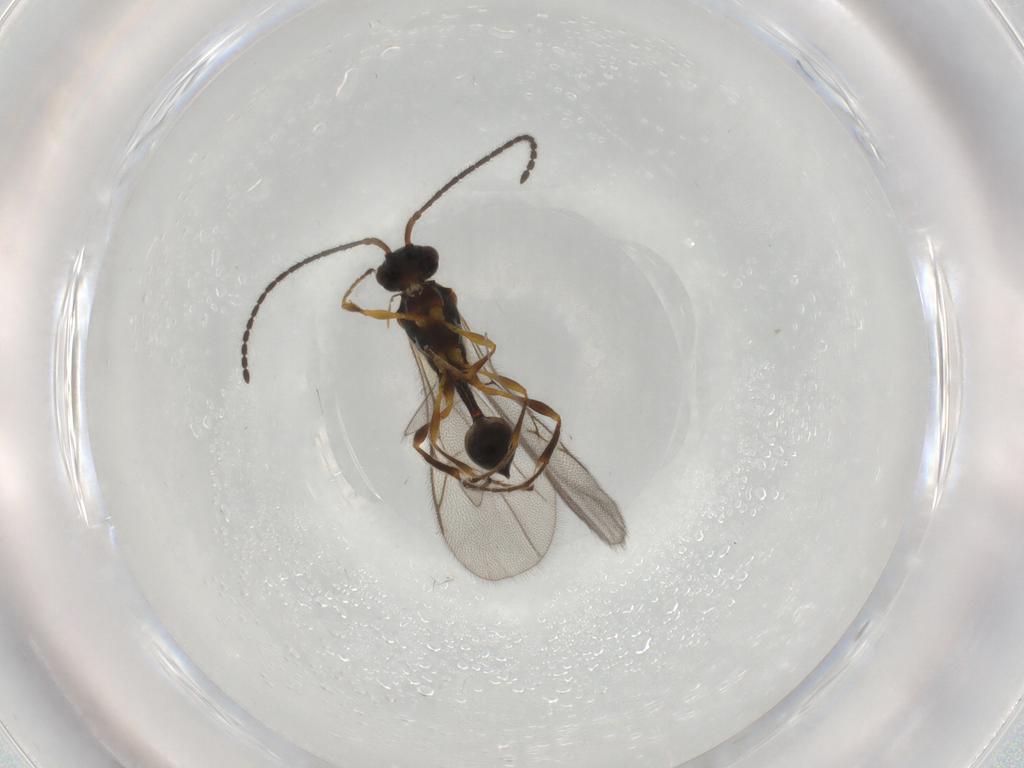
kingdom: Animalia
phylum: Arthropoda
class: Insecta
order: Hymenoptera
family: Diapriidae
